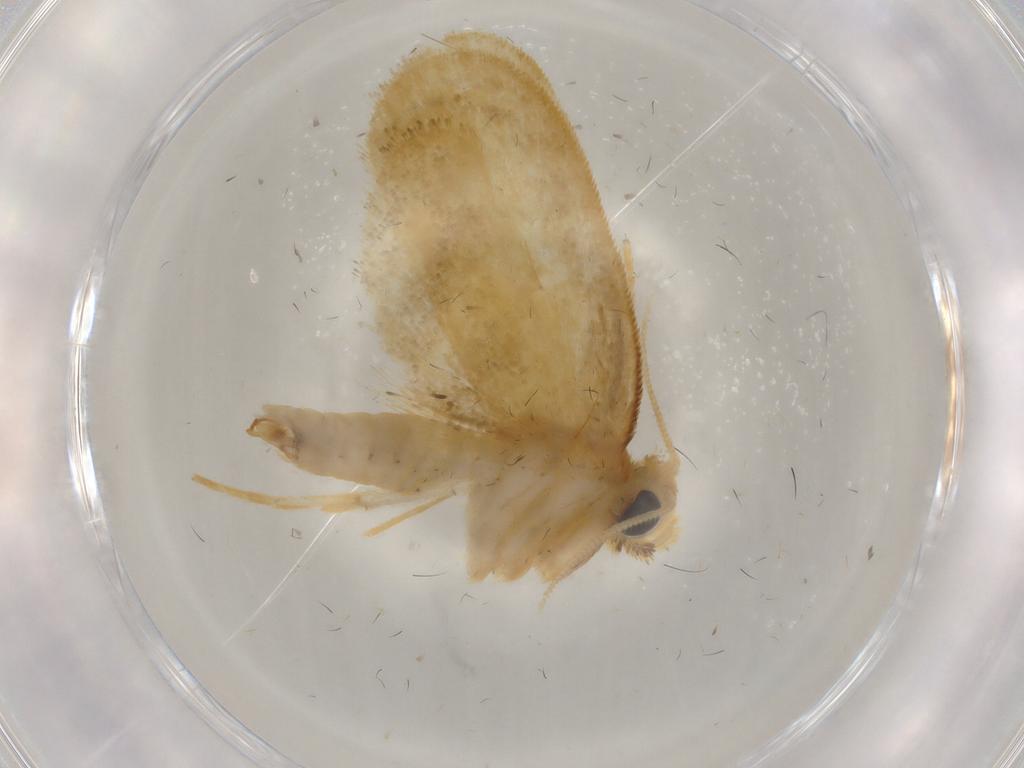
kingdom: Animalia
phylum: Arthropoda
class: Insecta
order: Lepidoptera
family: Psychidae
